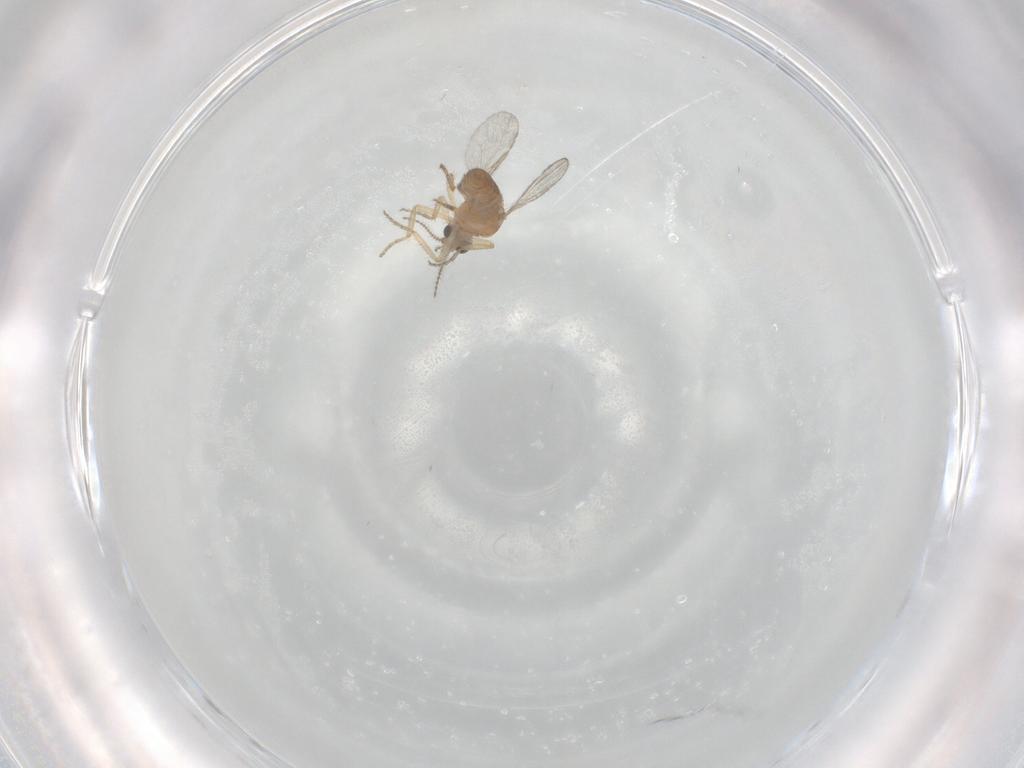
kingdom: Animalia
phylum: Arthropoda
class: Insecta
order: Diptera
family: Ceratopogonidae
